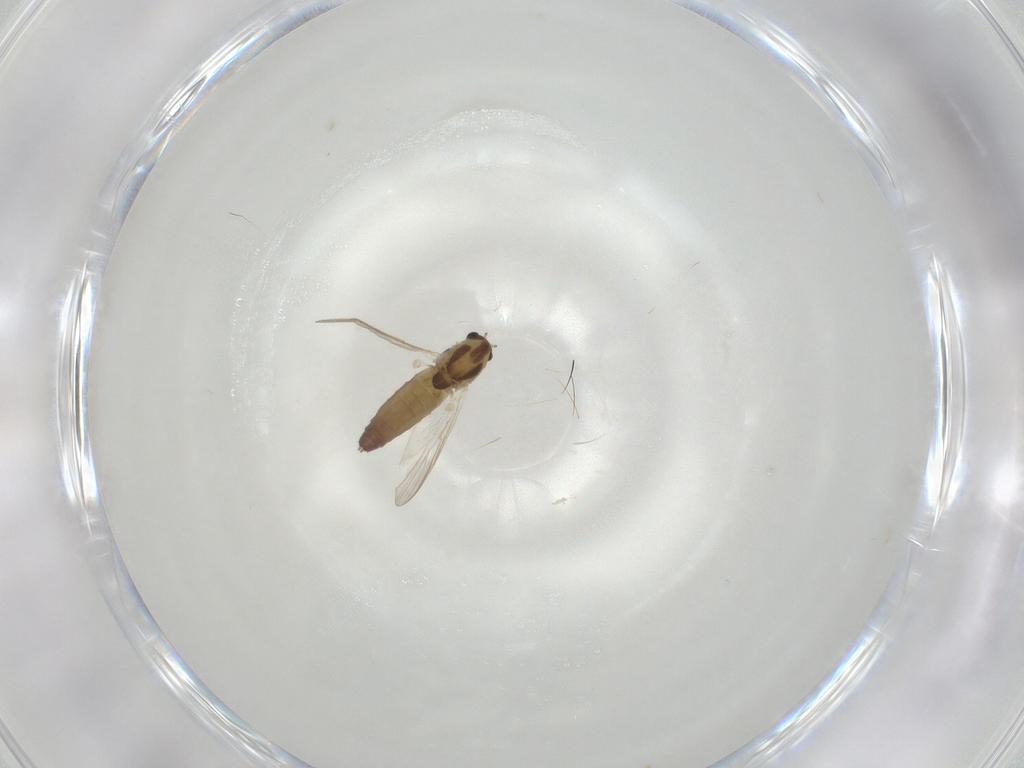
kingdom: Animalia
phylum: Arthropoda
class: Insecta
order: Diptera
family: Chironomidae
